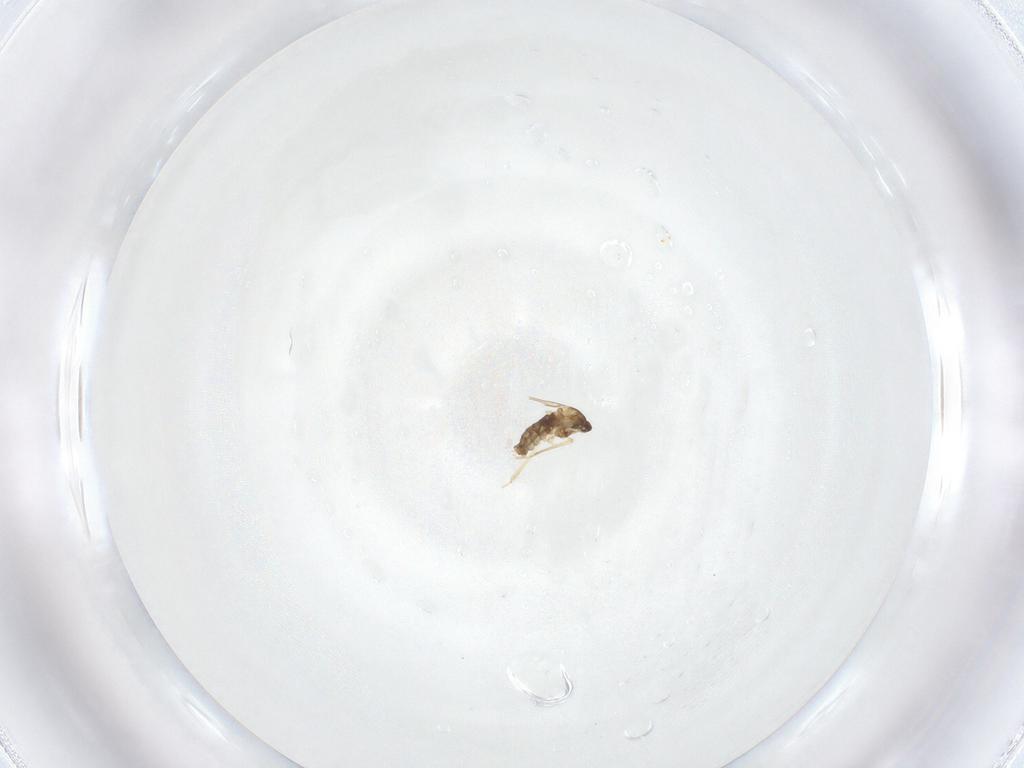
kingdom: Animalia
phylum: Arthropoda
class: Insecta
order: Diptera
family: Cecidomyiidae
